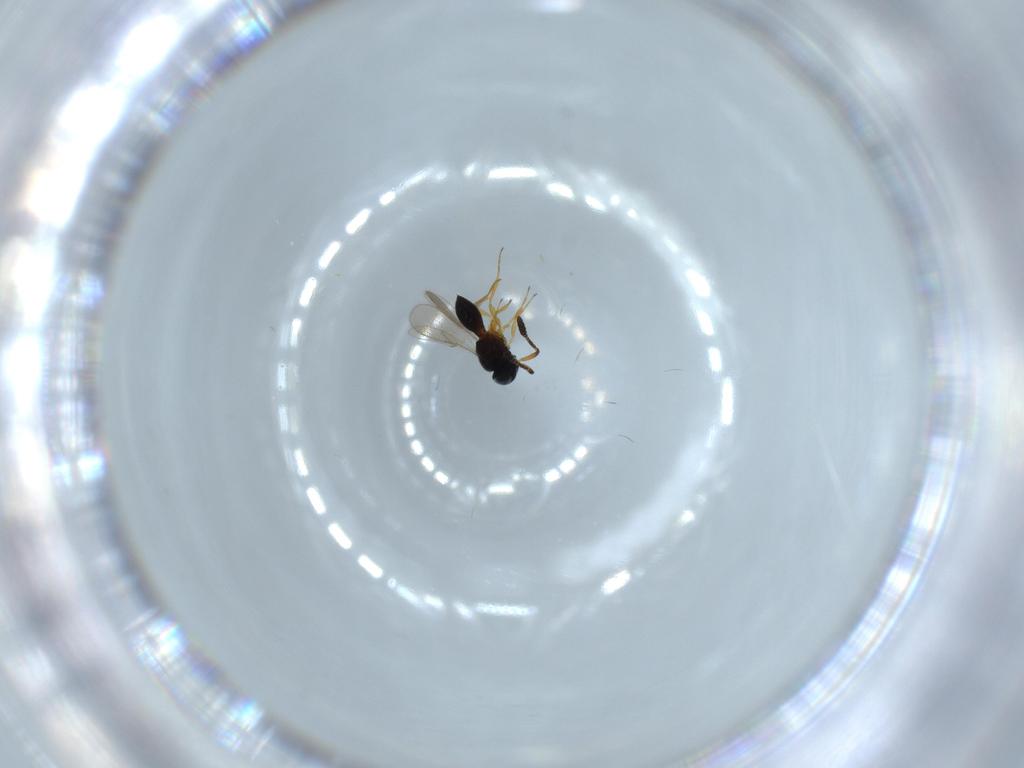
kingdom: Animalia
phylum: Arthropoda
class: Insecta
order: Hymenoptera
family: Scelionidae
